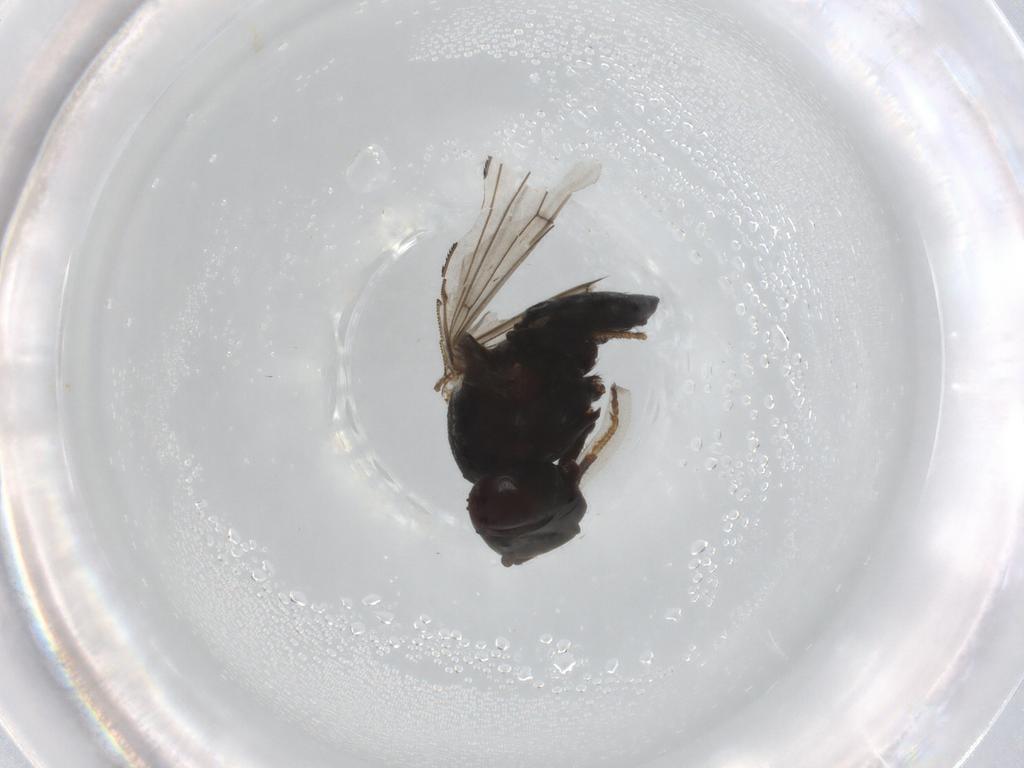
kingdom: Animalia
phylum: Arthropoda
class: Insecta
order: Diptera
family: Ephydridae
